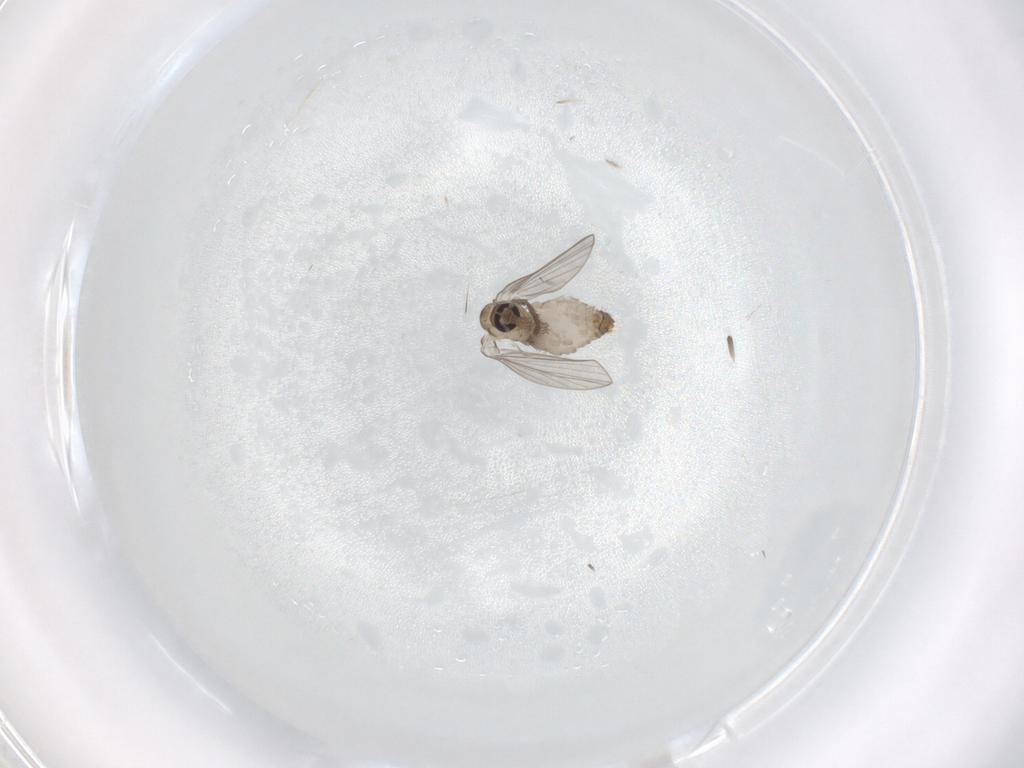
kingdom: Animalia
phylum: Arthropoda
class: Insecta
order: Diptera
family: Psychodidae
